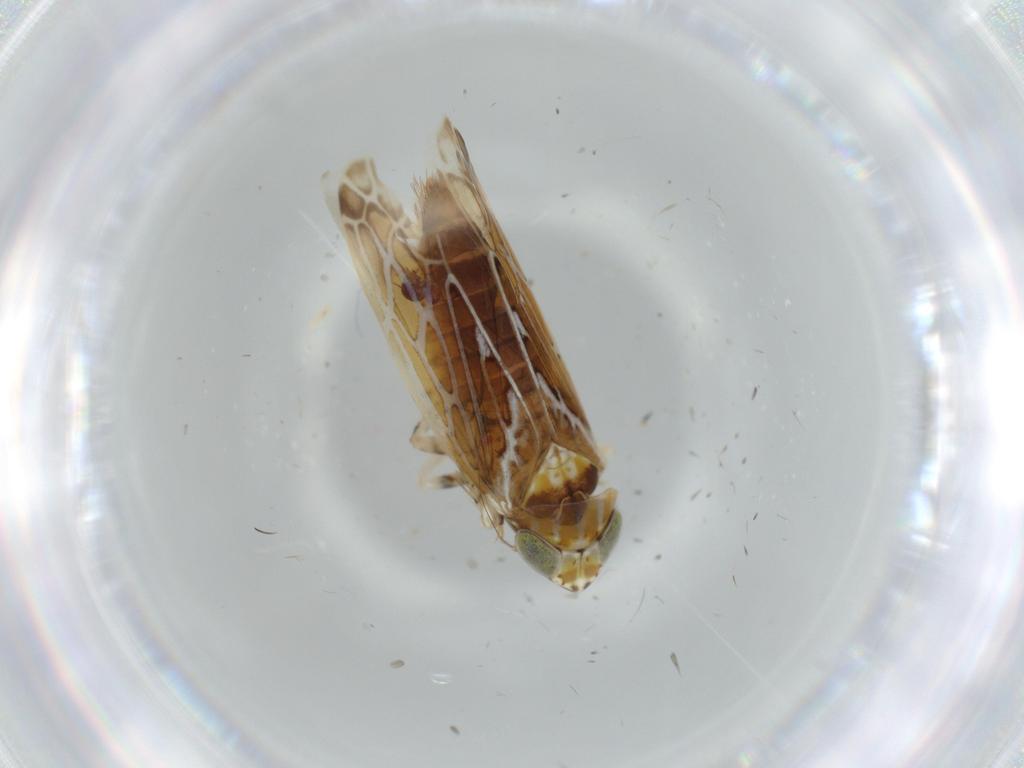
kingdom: Animalia
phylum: Arthropoda
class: Insecta
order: Hemiptera
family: Cicadellidae
